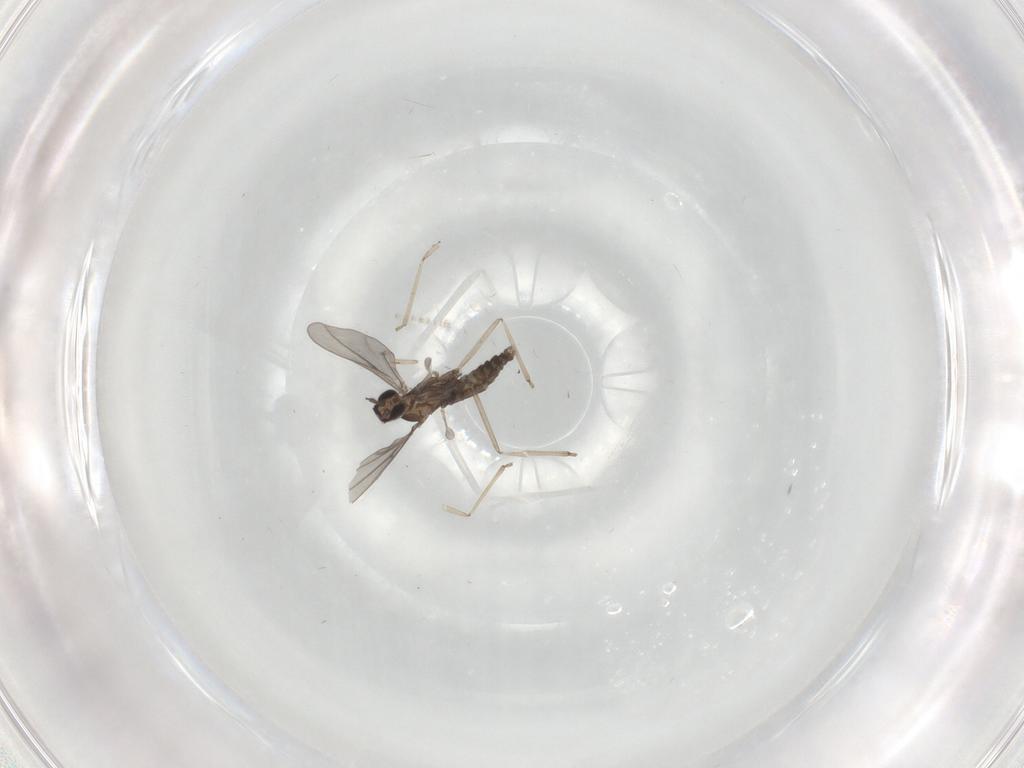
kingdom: Animalia
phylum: Arthropoda
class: Insecta
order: Diptera
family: Cecidomyiidae
